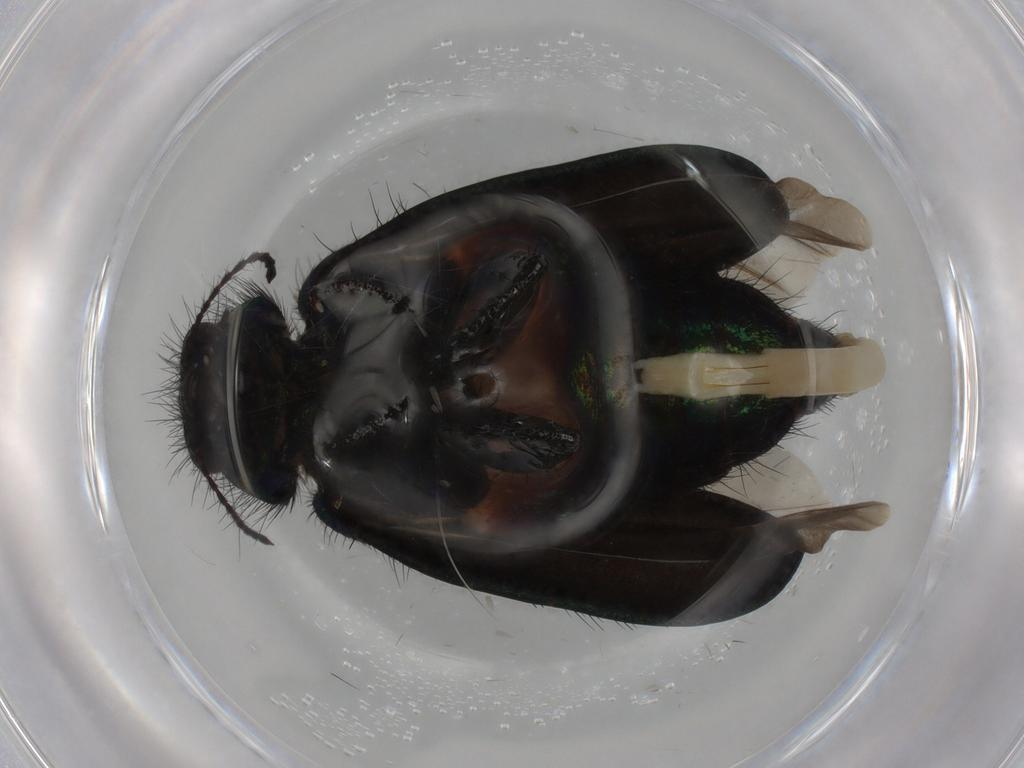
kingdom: Animalia
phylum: Arthropoda
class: Insecta
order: Coleoptera
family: Melyridae
